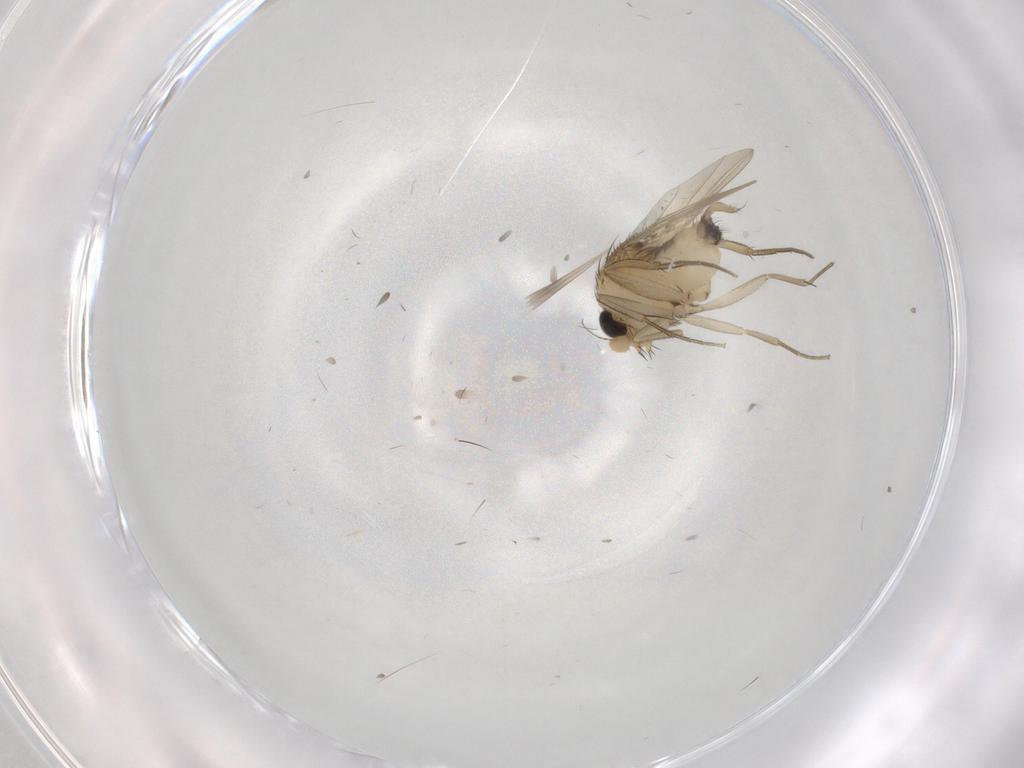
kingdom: Animalia
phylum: Arthropoda
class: Insecta
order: Diptera
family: Phoridae
